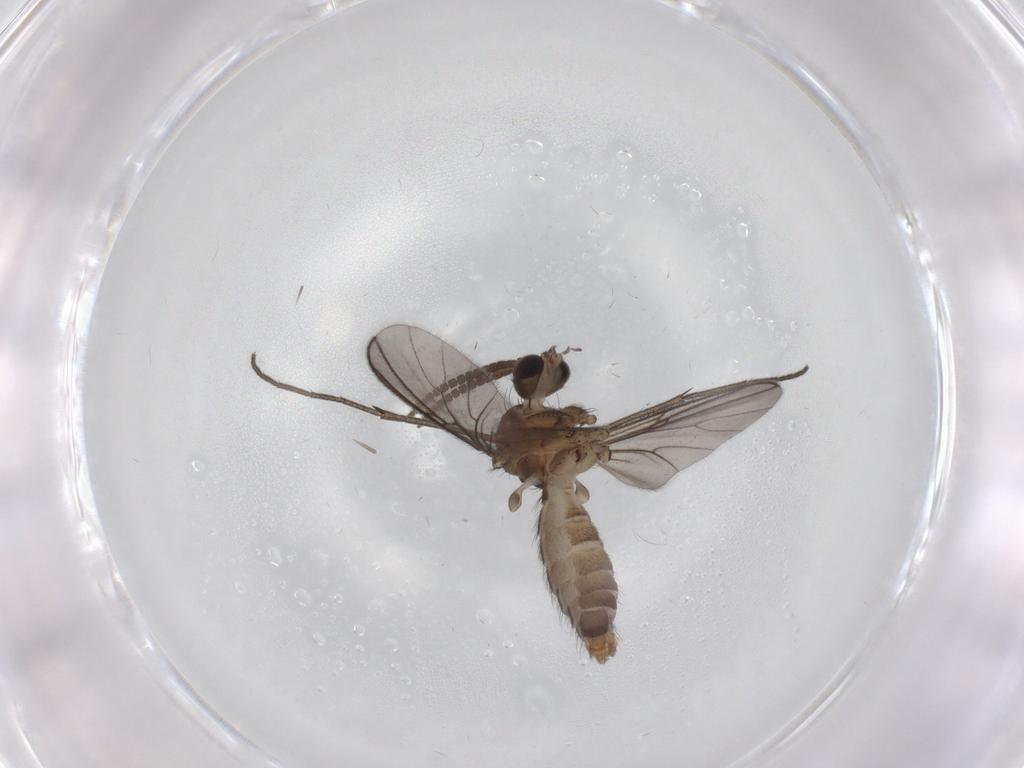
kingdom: Animalia
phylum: Arthropoda
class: Insecta
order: Diptera
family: Mycetophilidae
